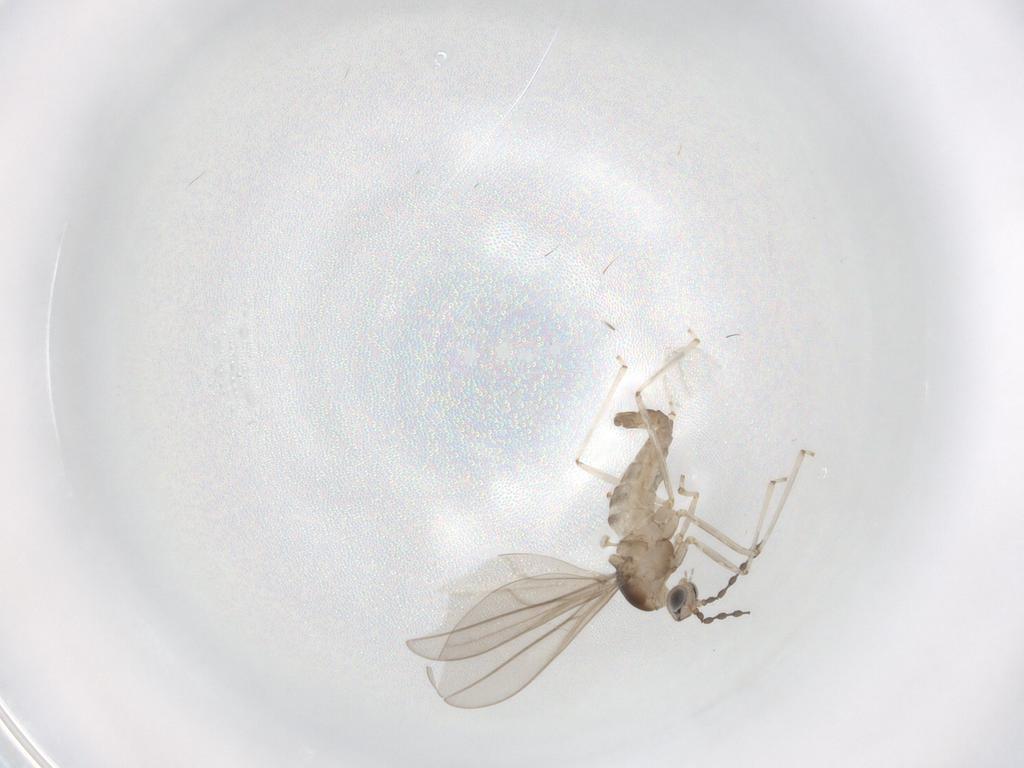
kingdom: Animalia
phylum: Arthropoda
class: Insecta
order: Diptera
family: Cecidomyiidae
